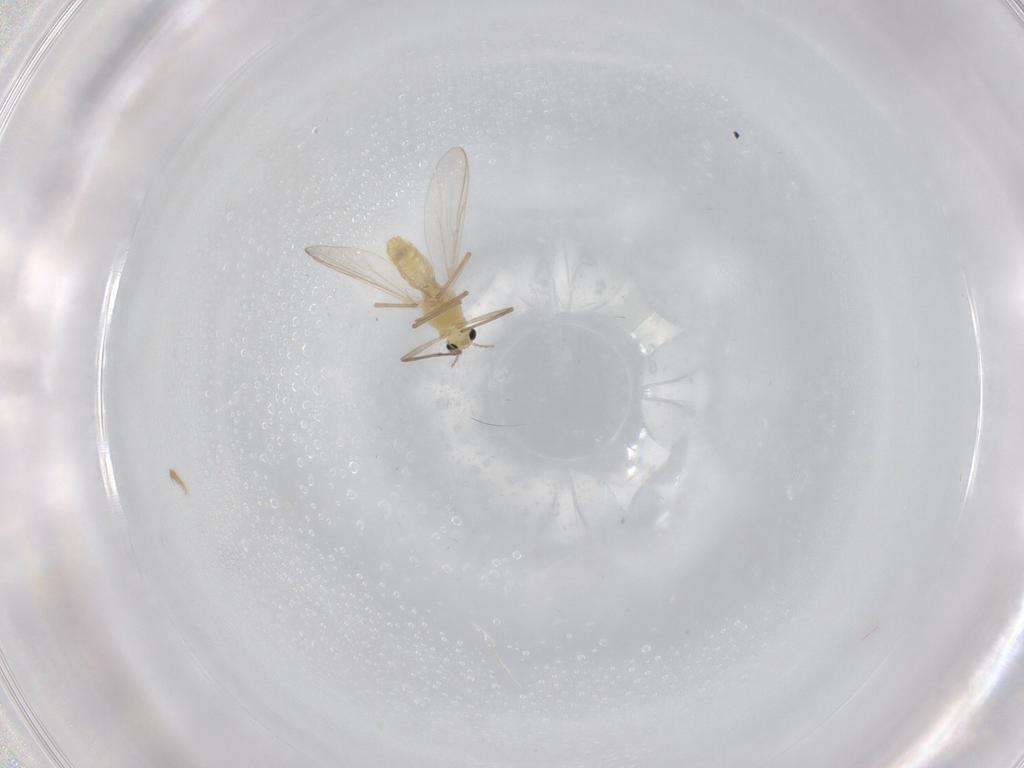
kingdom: Animalia
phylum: Arthropoda
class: Insecta
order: Diptera
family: Chironomidae
